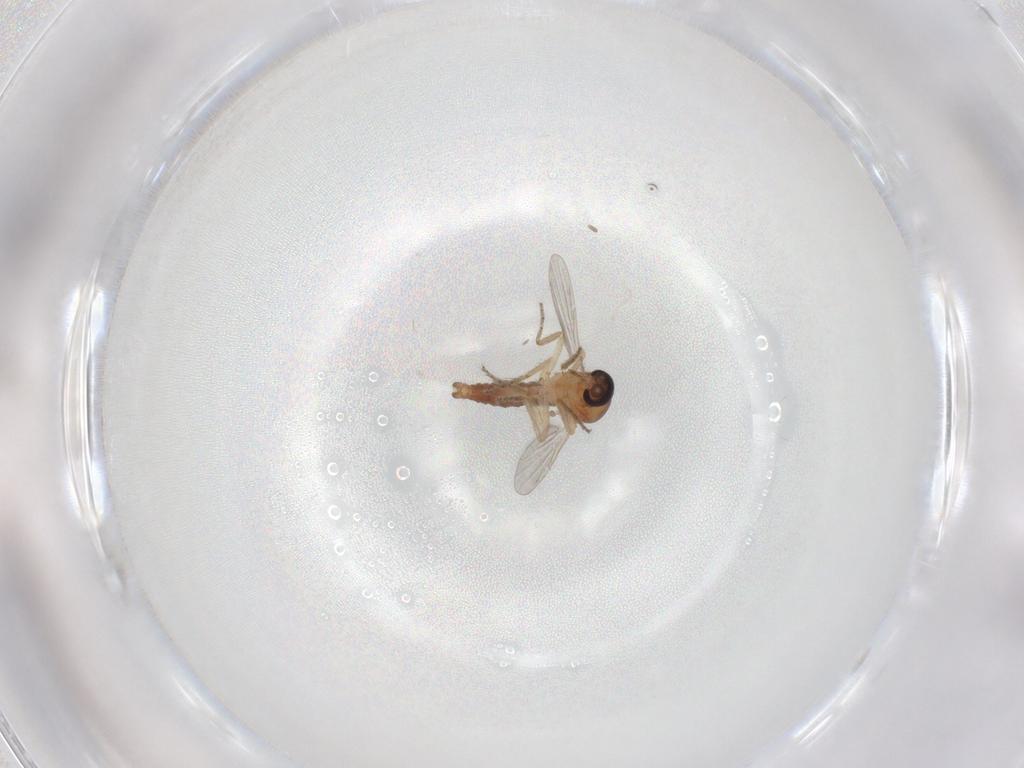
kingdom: Animalia
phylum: Arthropoda
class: Insecta
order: Diptera
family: Ceratopogonidae
